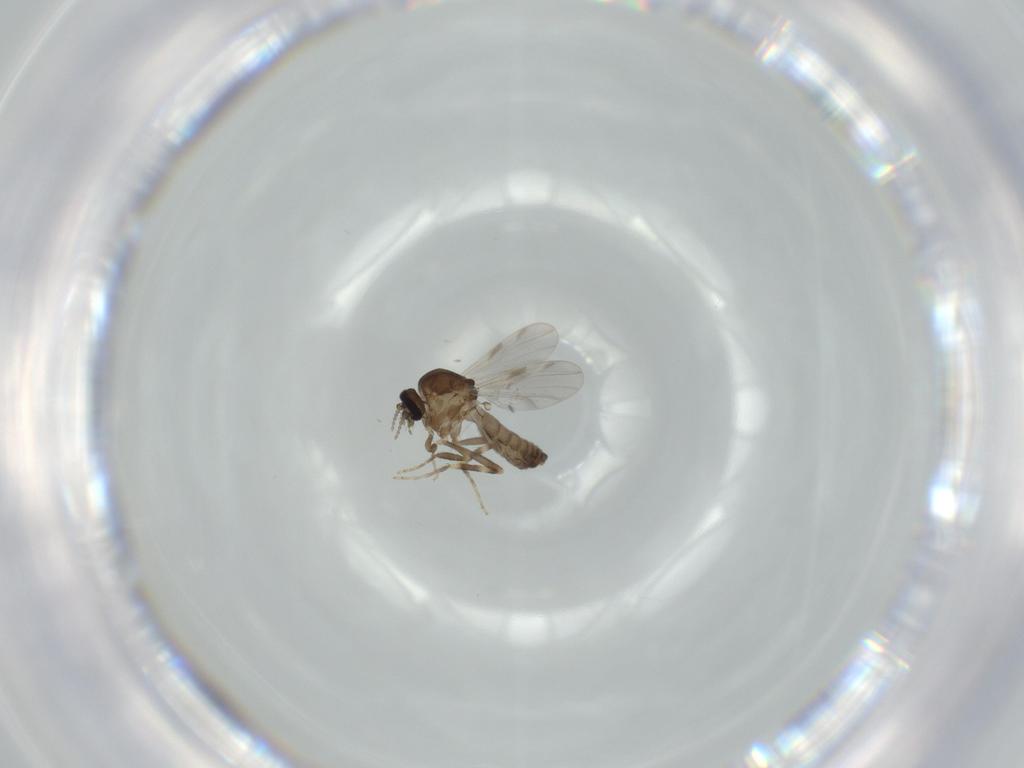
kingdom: Animalia
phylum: Arthropoda
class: Insecta
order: Diptera
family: Ceratopogonidae
